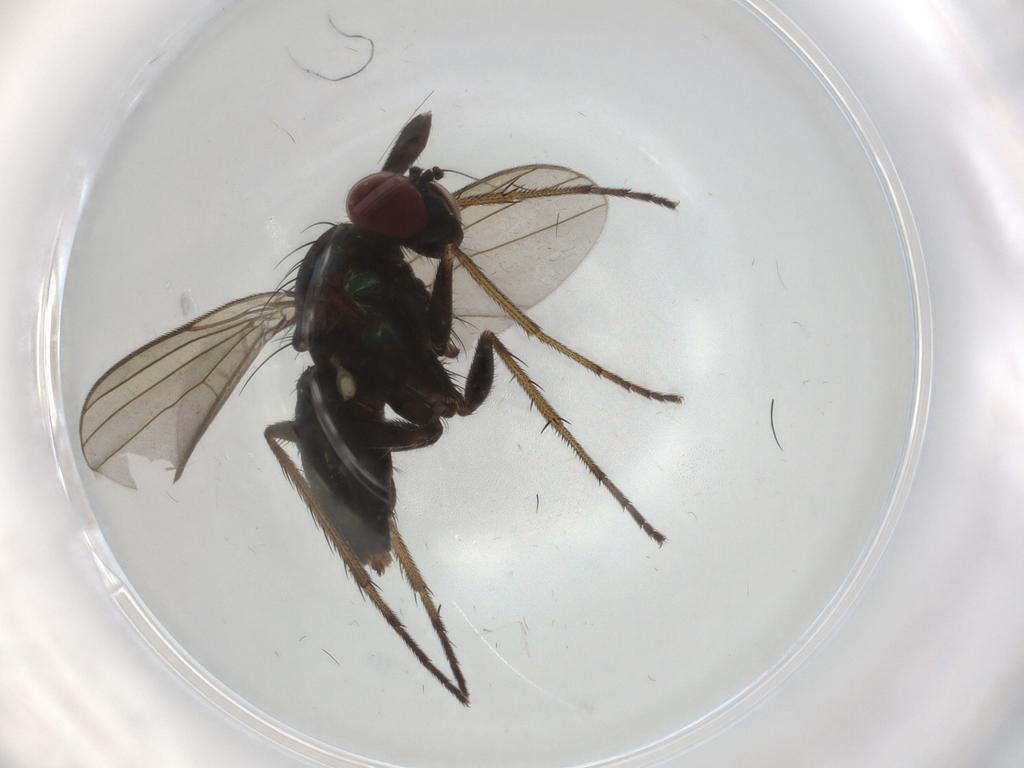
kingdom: Animalia
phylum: Arthropoda
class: Insecta
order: Diptera
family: Dolichopodidae
